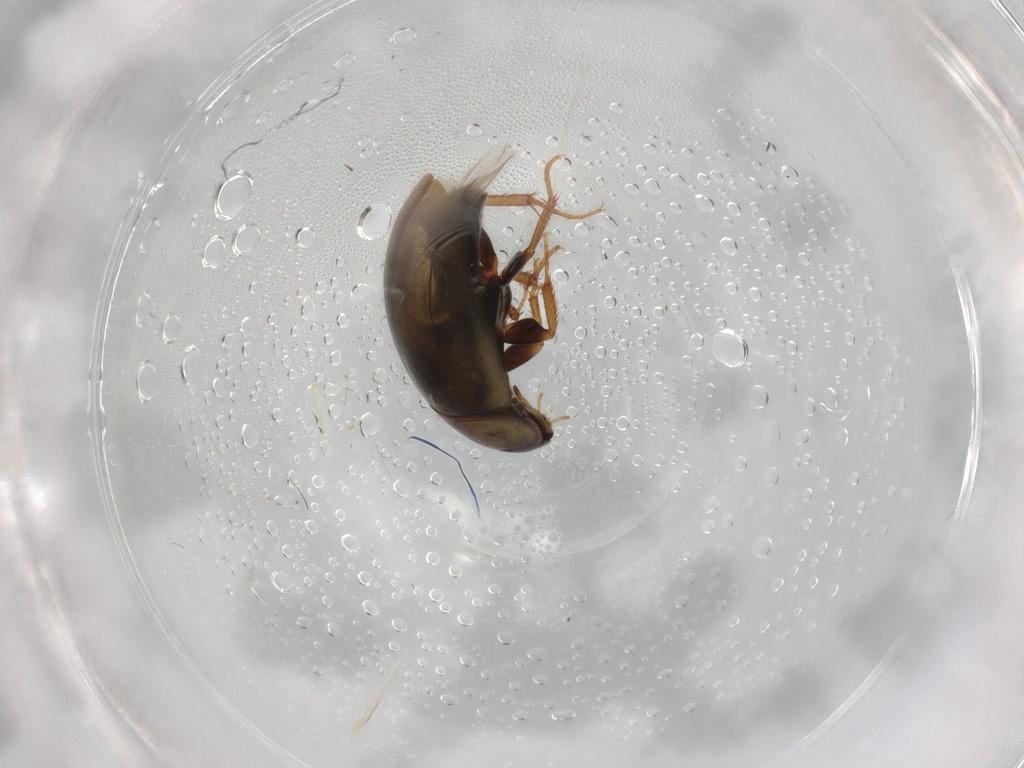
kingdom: Animalia
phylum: Arthropoda
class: Insecta
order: Coleoptera
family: Hydrophilidae
